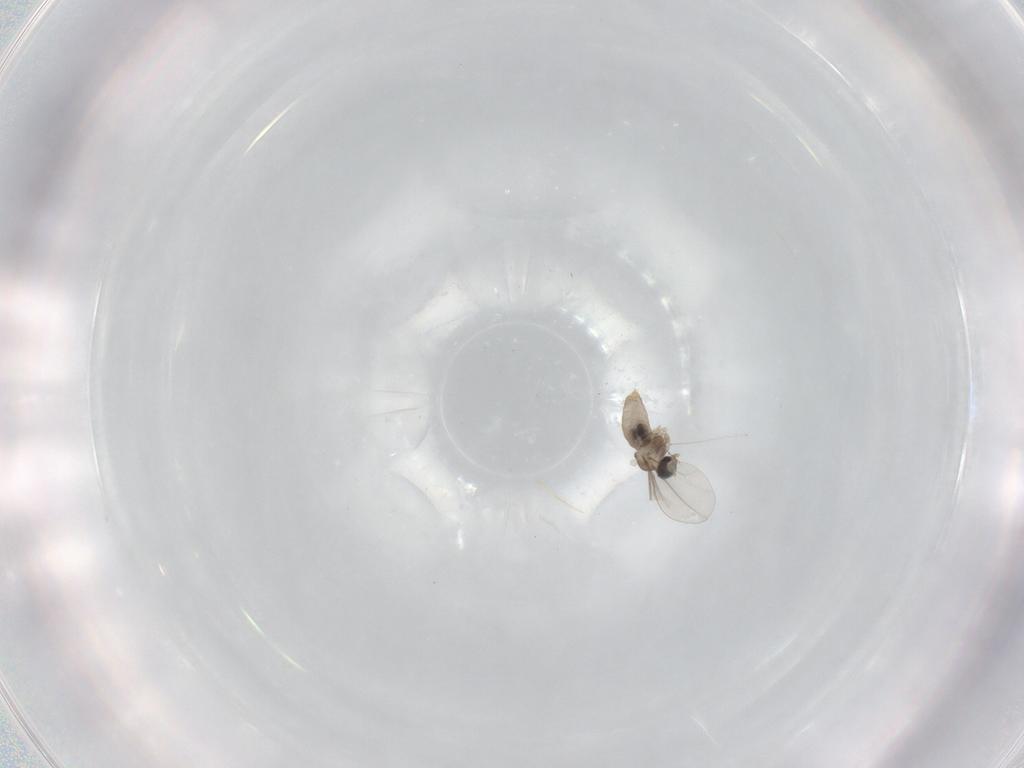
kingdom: Animalia
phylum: Arthropoda
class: Insecta
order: Diptera
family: Cecidomyiidae
